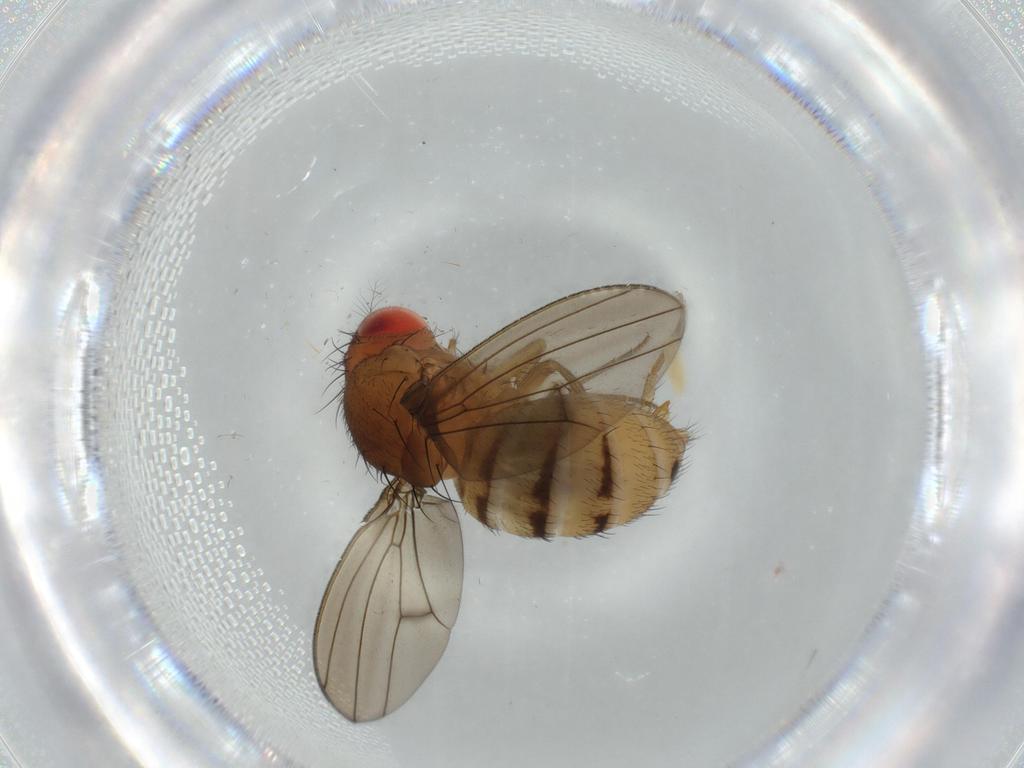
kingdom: Animalia
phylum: Arthropoda
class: Insecta
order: Diptera
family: Drosophilidae
